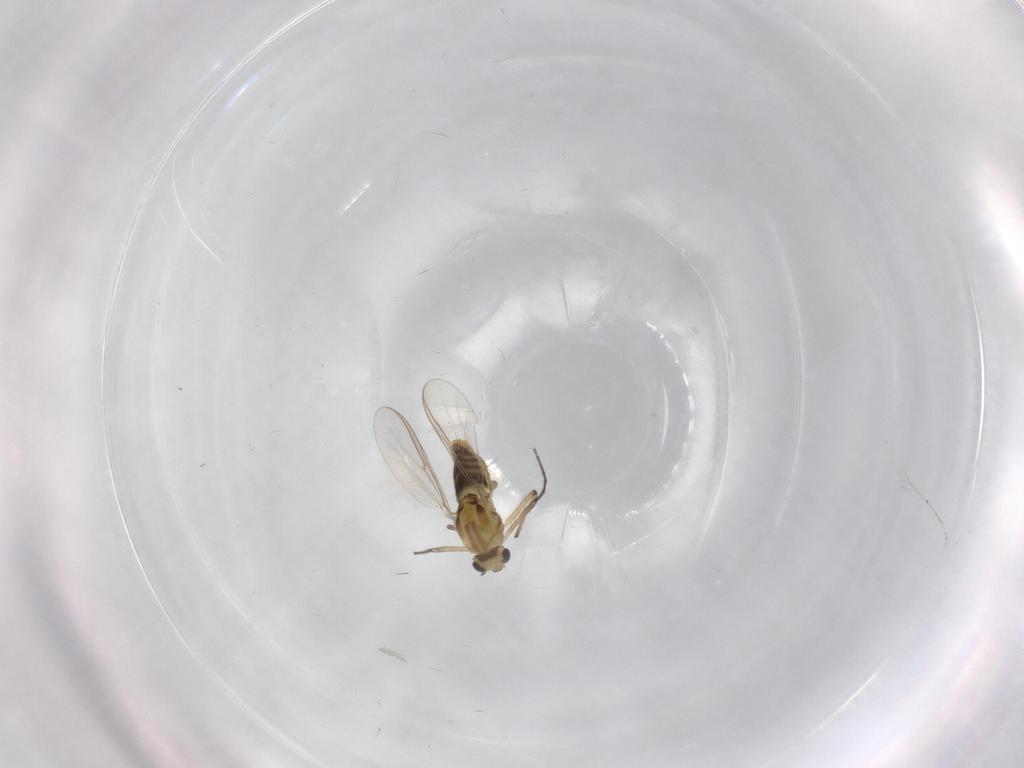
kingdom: Animalia
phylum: Arthropoda
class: Insecta
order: Diptera
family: Chironomidae
